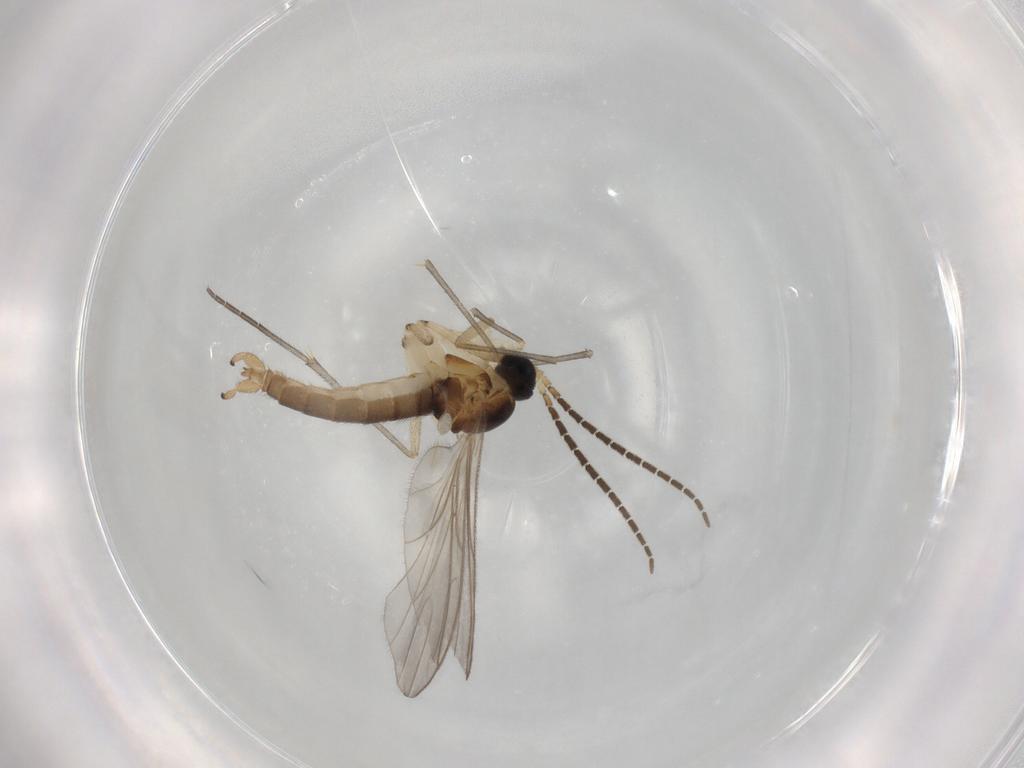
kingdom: Animalia
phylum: Arthropoda
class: Insecta
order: Diptera
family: Sciaridae
